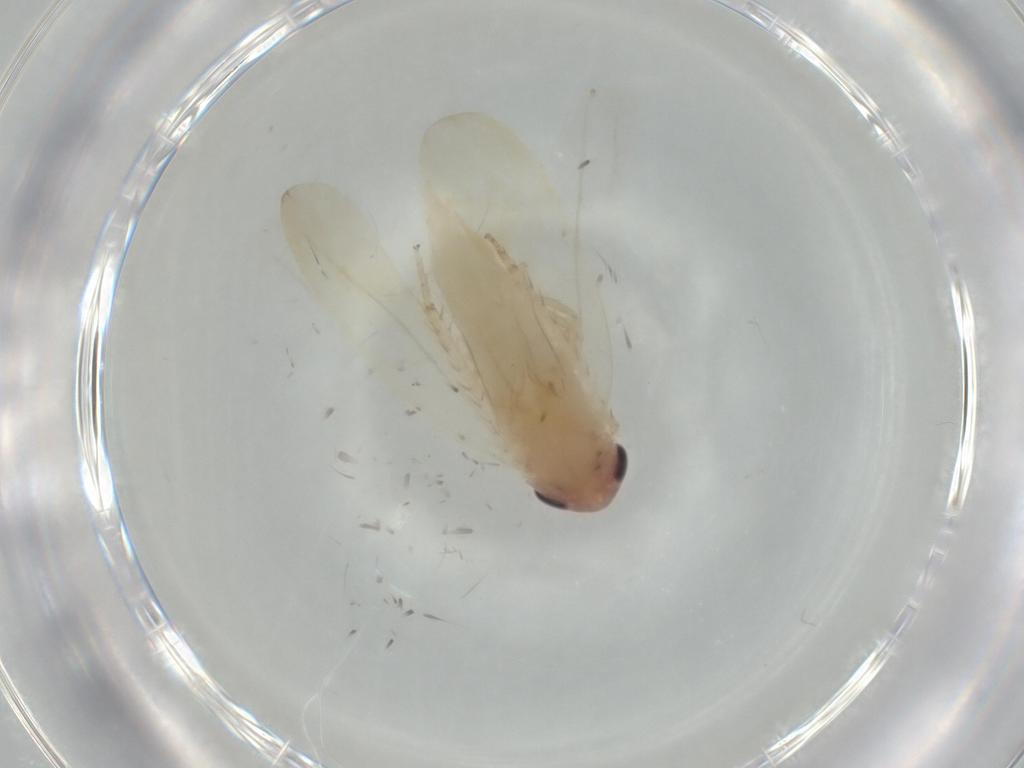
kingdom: Animalia
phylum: Arthropoda
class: Insecta
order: Hemiptera
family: Cicadellidae
